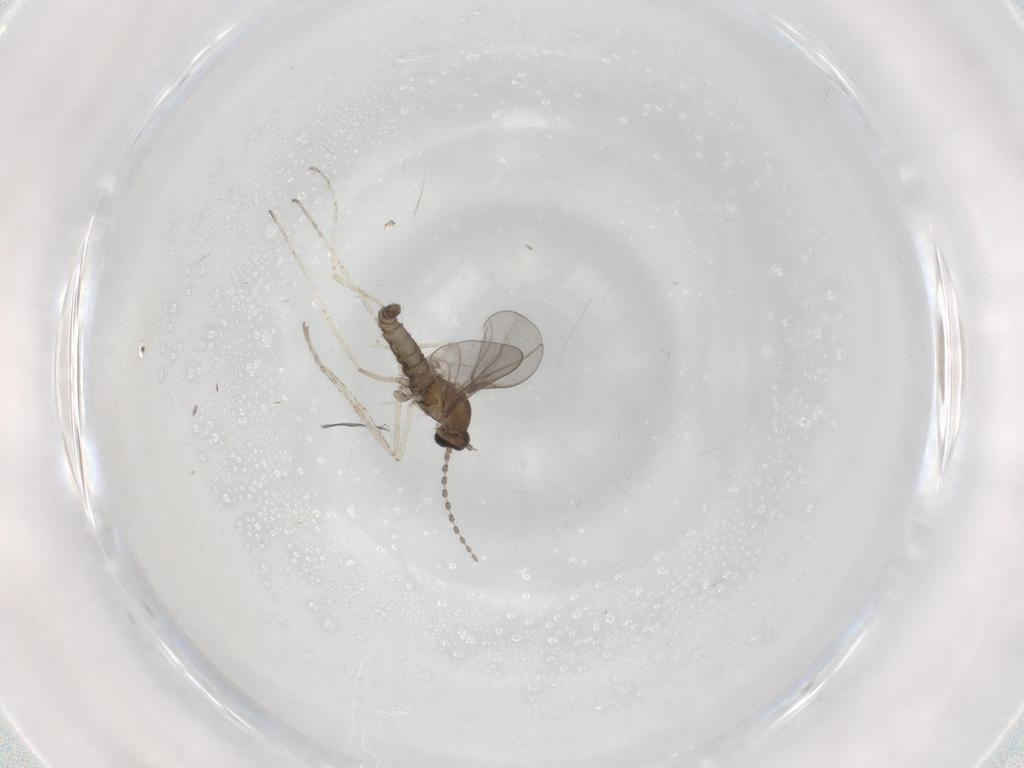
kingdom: Animalia
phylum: Arthropoda
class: Insecta
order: Diptera
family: Cecidomyiidae
